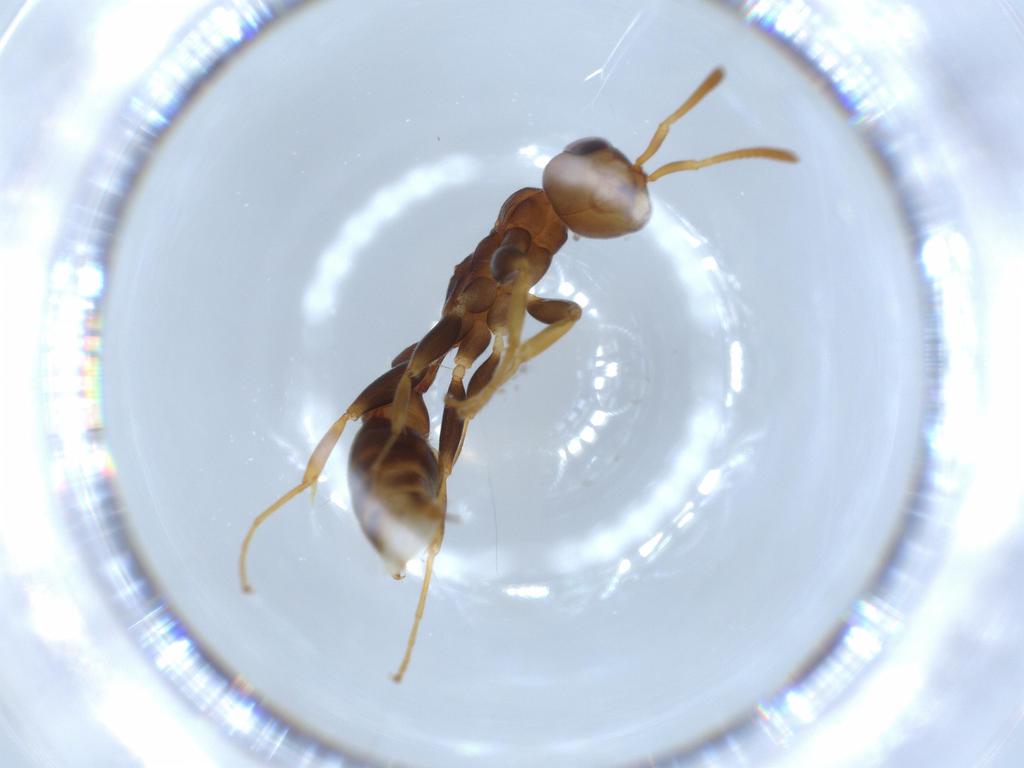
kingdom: Animalia
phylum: Arthropoda
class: Insecta
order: Hymenoptera
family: Formicidae
